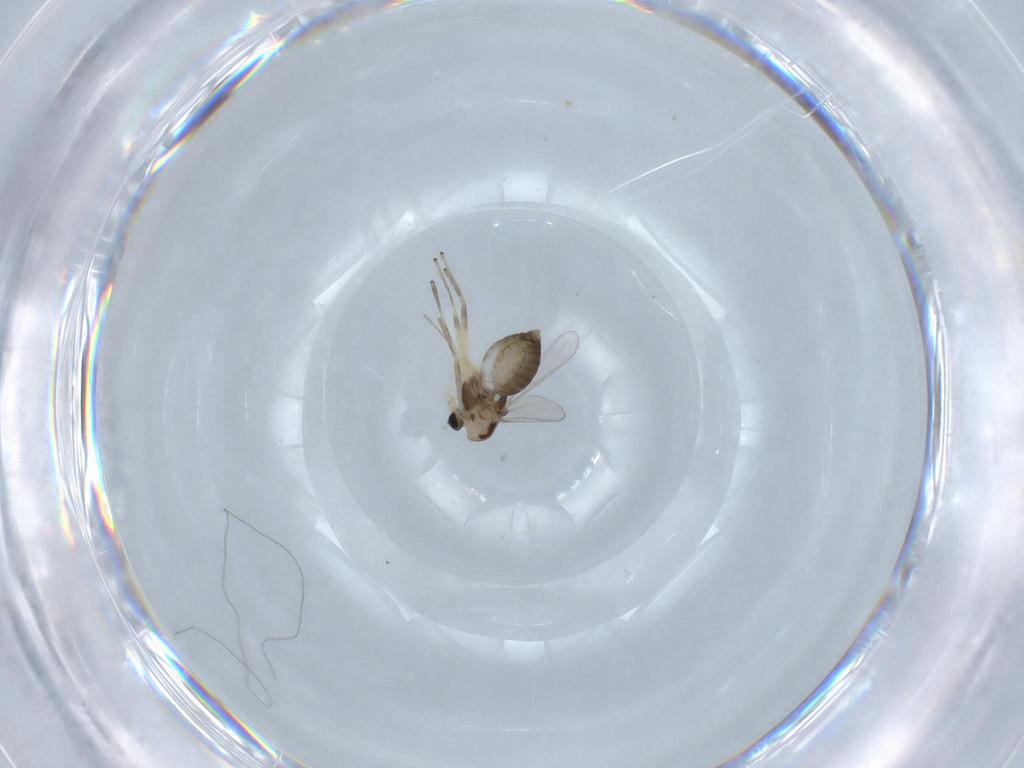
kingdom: Animalia
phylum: Arthropoda
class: Insecta
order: Diptera
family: Chironomidae
